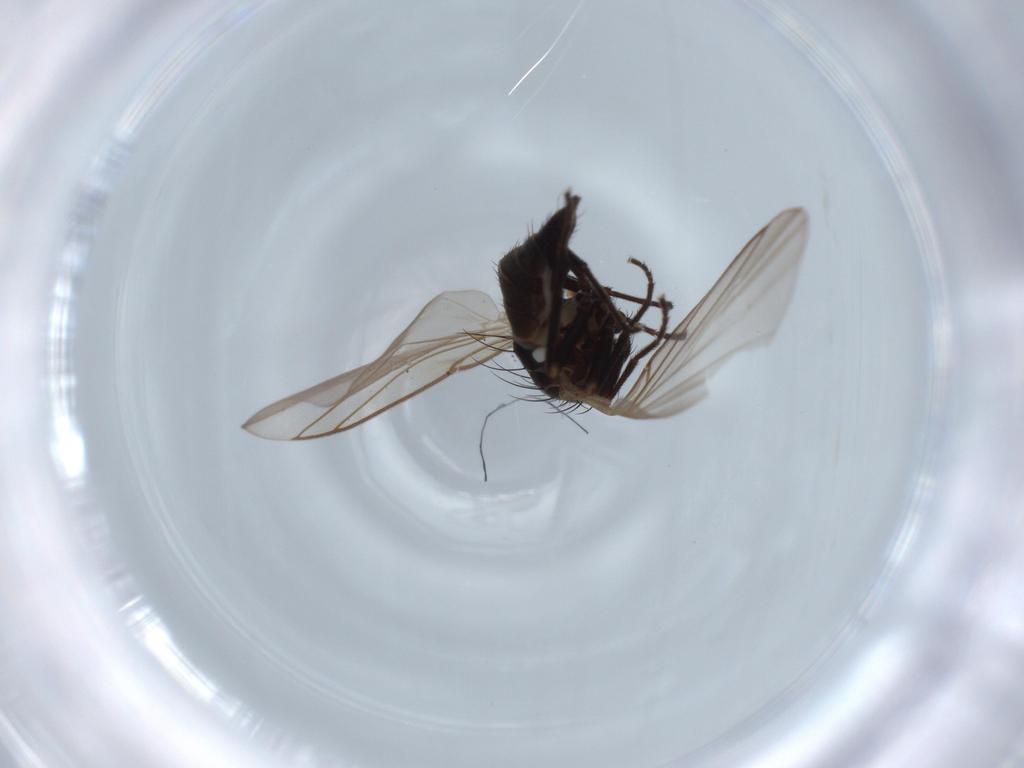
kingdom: Animalia
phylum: Arthropoda
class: Insecta
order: Diptera
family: Agromyzidae
